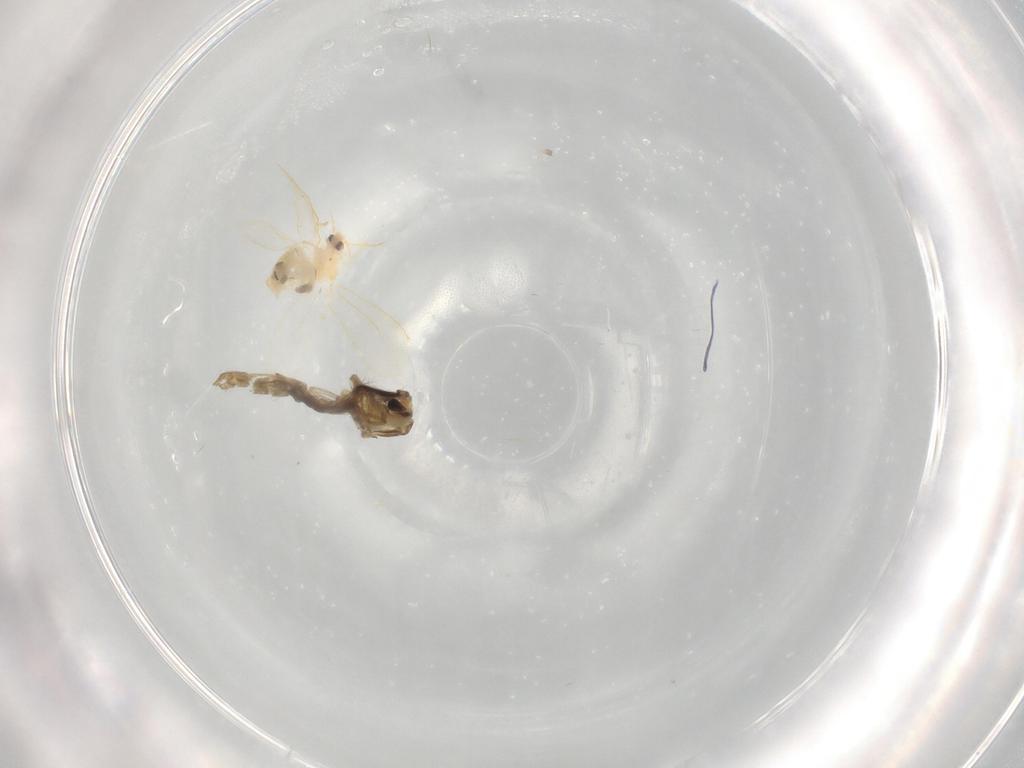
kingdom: Animalia
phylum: Arthropoda
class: Insecta
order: Hemiptera
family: Aleyrodidae
